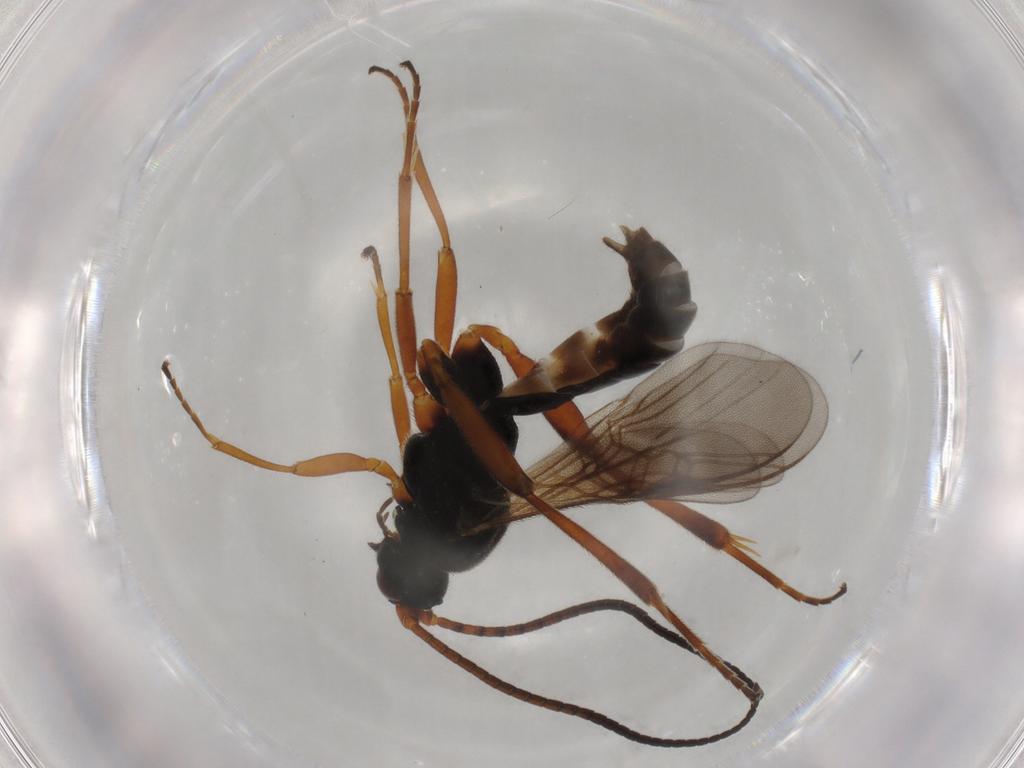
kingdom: Animalia
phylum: Arthropoda
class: Insecta
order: Hymenoptera
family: Braconidae
